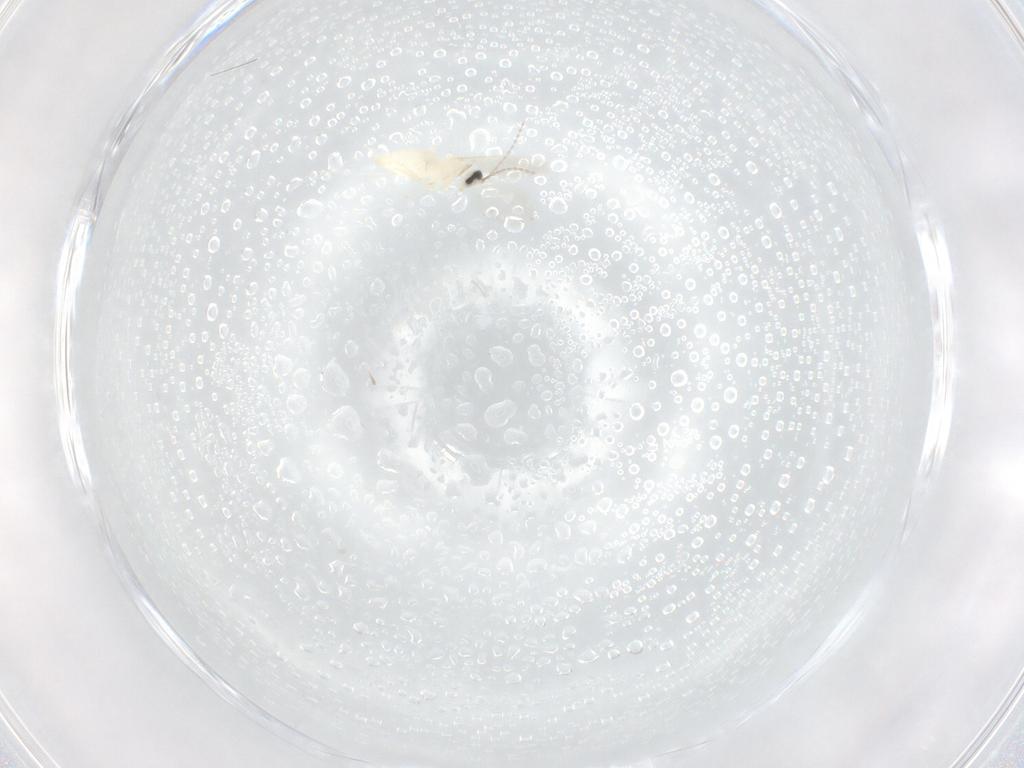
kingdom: Animalia
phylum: Arthropoda
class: Insecta
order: Diptera
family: Cecidomyiidae
